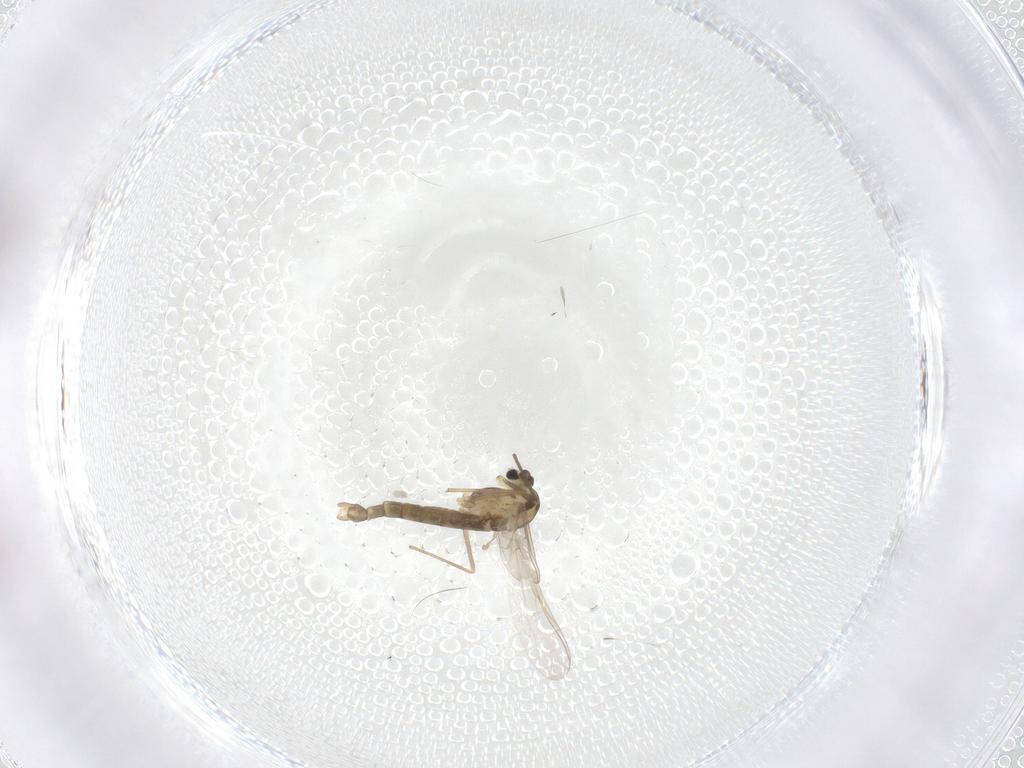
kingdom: Animalia
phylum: Arthropoda
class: Insecta
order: Diptera
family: Chironomidae
